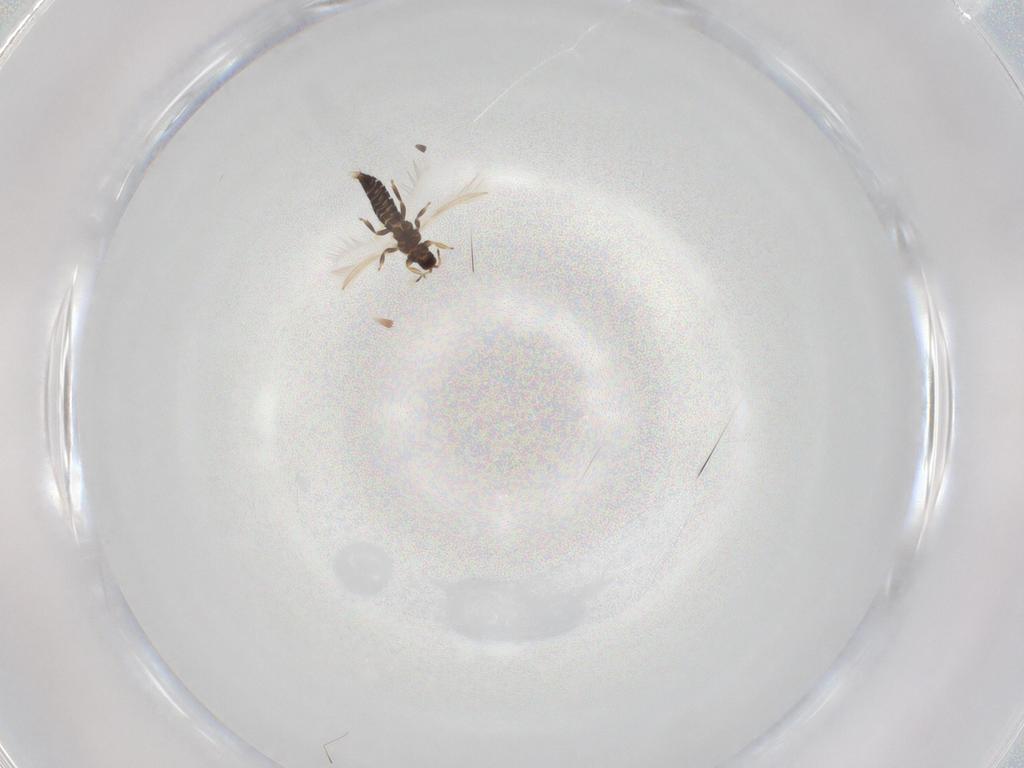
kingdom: Animalia
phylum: Arthropoda
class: Insecta
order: Thysanoptera
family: Thripidae
